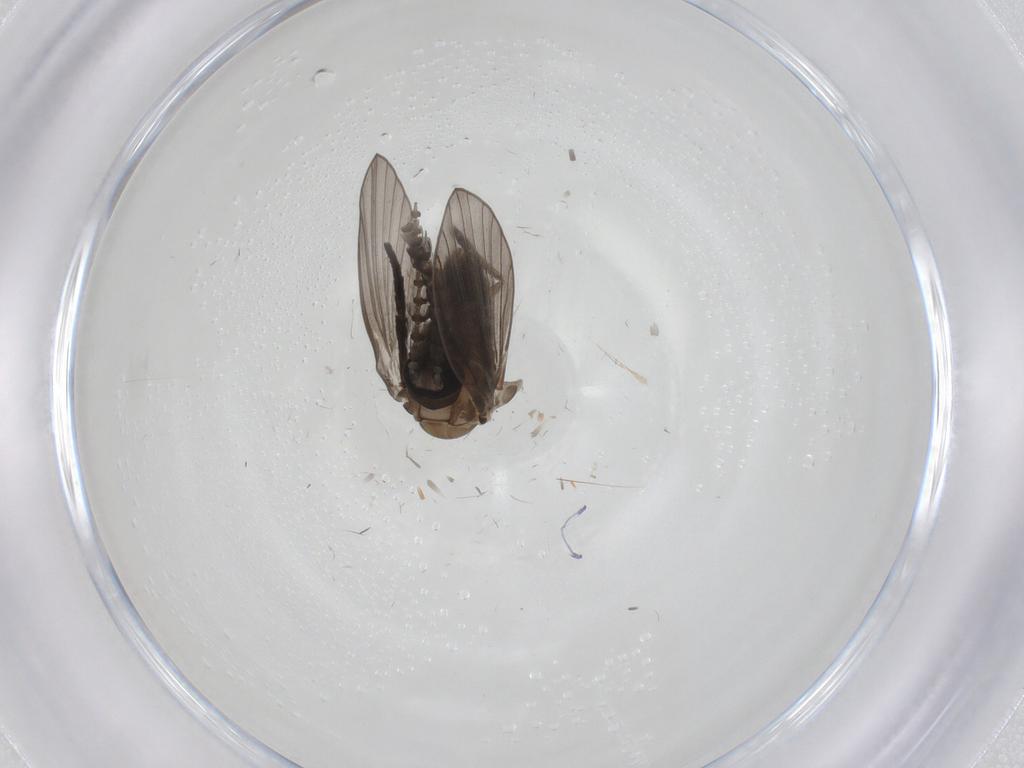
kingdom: Animalia
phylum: Arthropoda
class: Insecta
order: Diptera
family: Psychodidae
